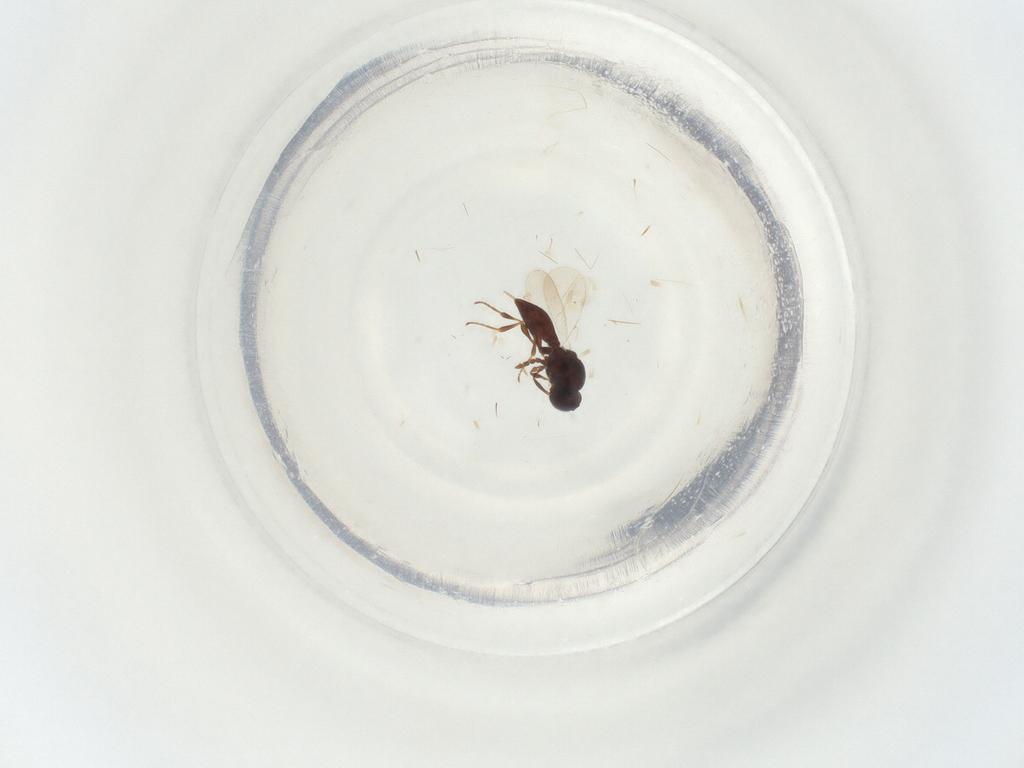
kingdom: Animalia
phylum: Arthropoda
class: Insecta
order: Hymenoptera
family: Platygastridae
